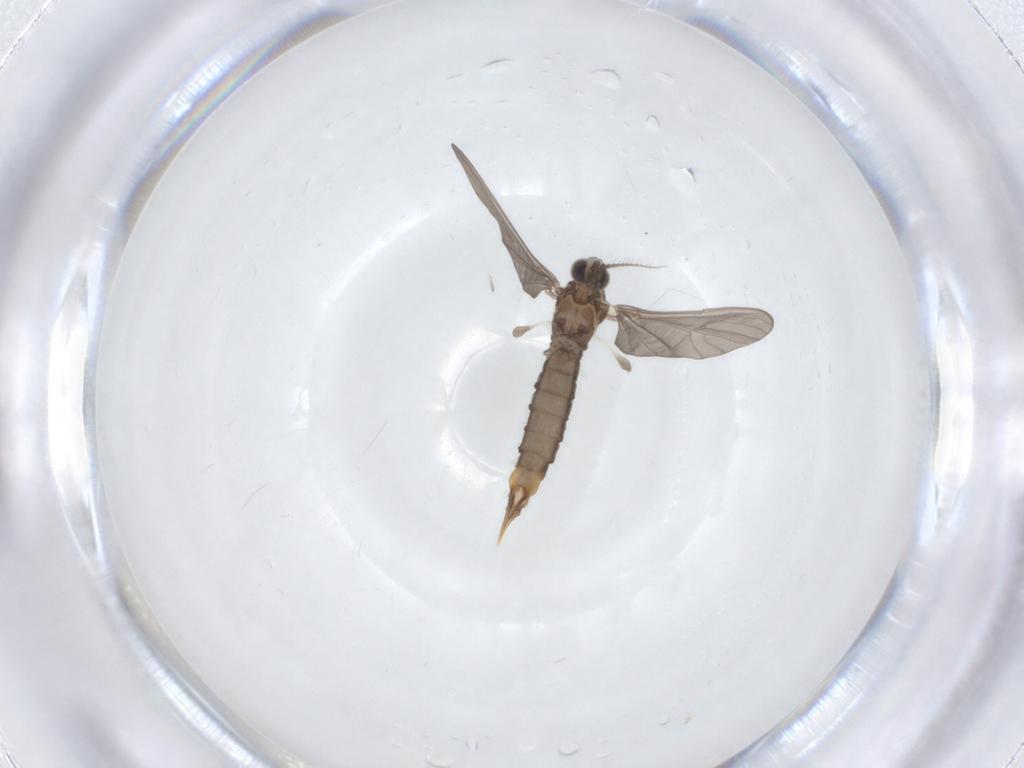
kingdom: Animalia
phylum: Arthropoda
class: Insecta
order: Diptera
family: Limoniidae
